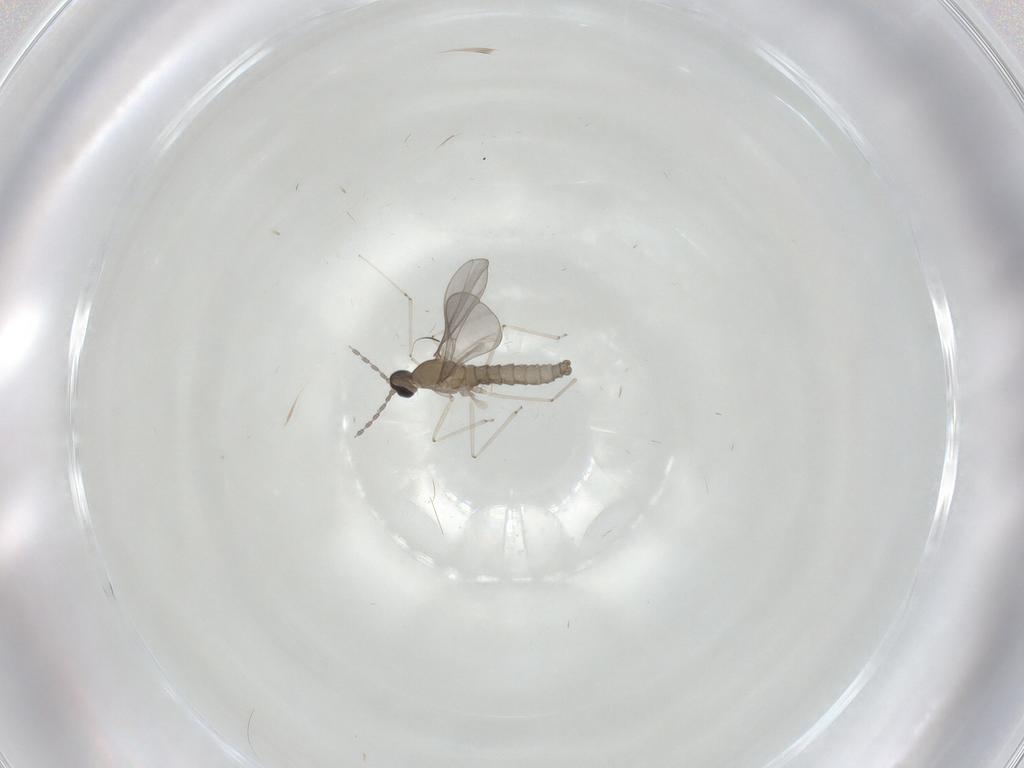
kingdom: Animalia
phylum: Arthropoda
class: Insecta
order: Diptera
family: Cecidomyiidae
